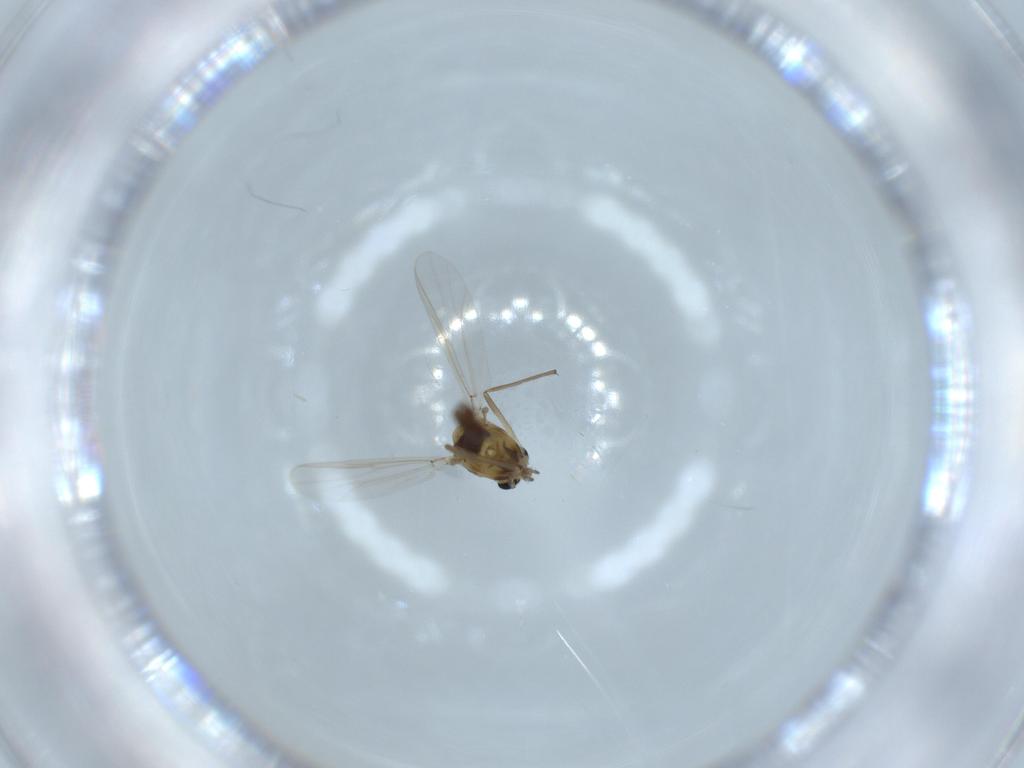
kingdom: Animalia
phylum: Arthropoda
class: Insecta
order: Diptera
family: Chironomidae
